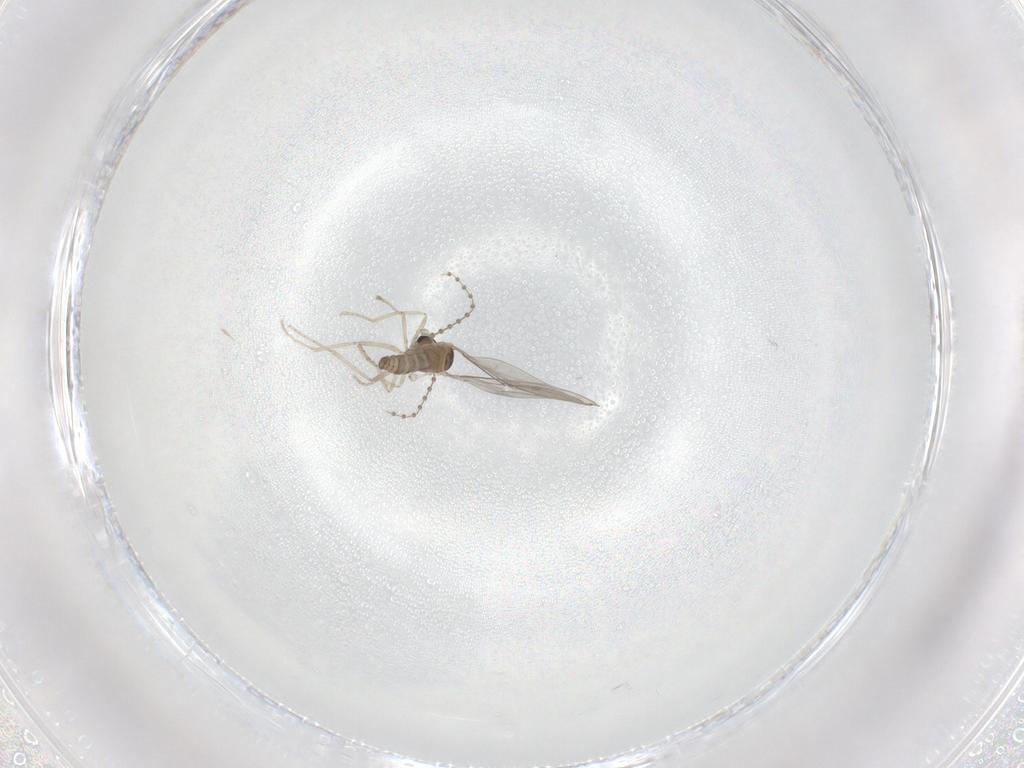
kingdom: Animalia
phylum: Arthropoda
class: Insecta
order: Diptera
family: Cecidomyiidae
